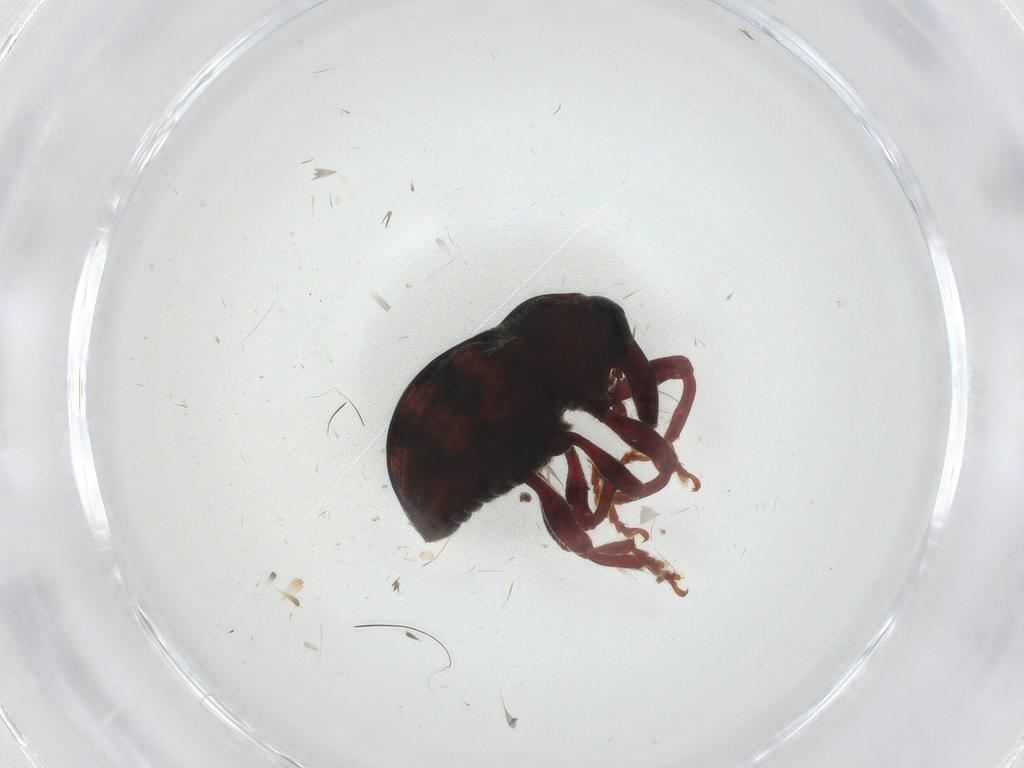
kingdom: Animalia
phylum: Arthropoda
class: Insecta
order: Coleoptera
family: Curculionidae
